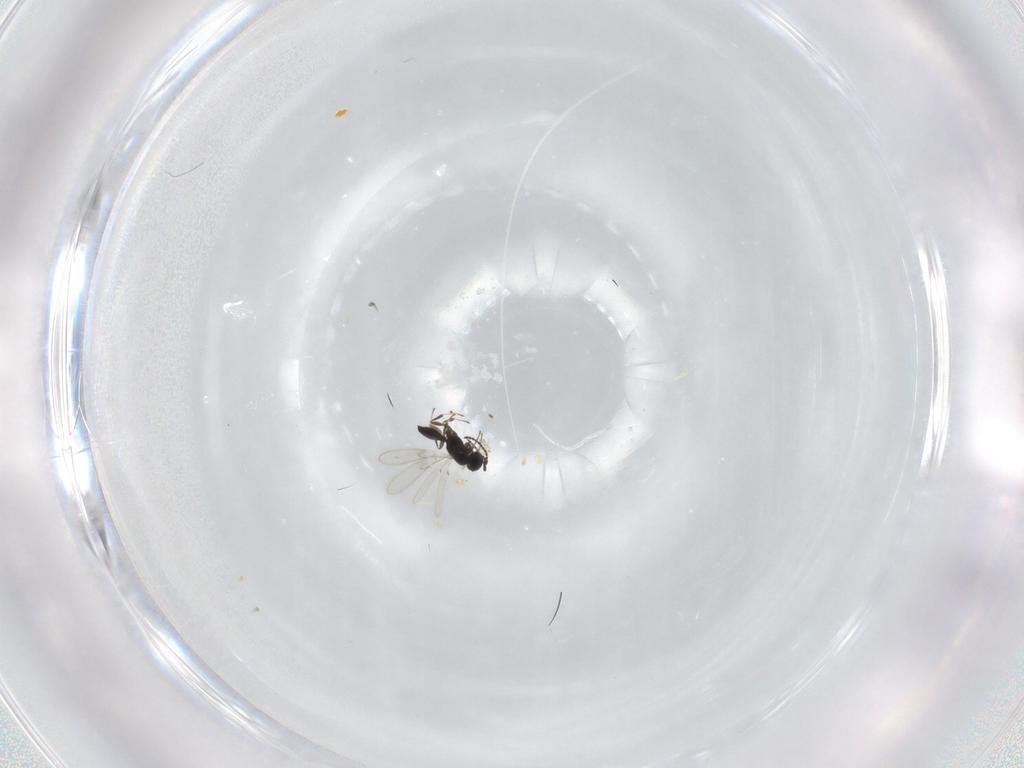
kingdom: Animalia
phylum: Arthropoda
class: Insecta
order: Hymenoptera
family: Scelionidae
